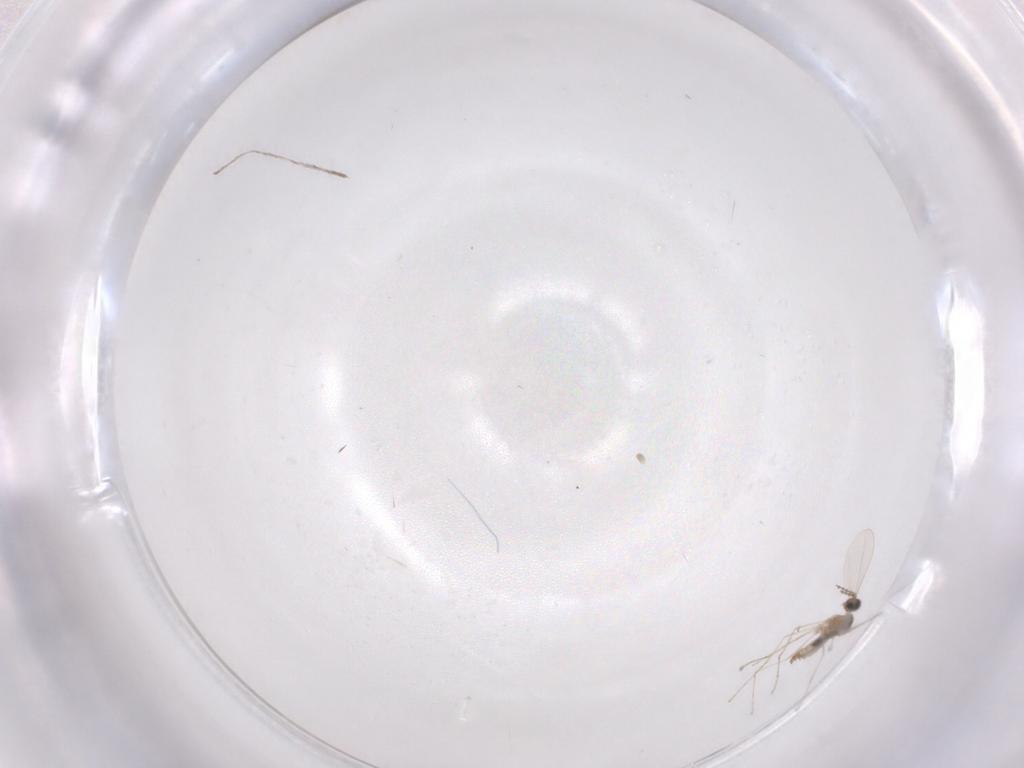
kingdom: Animalia
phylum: Arthropoda
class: Insecta
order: Diptera
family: Cecidomyiidae
